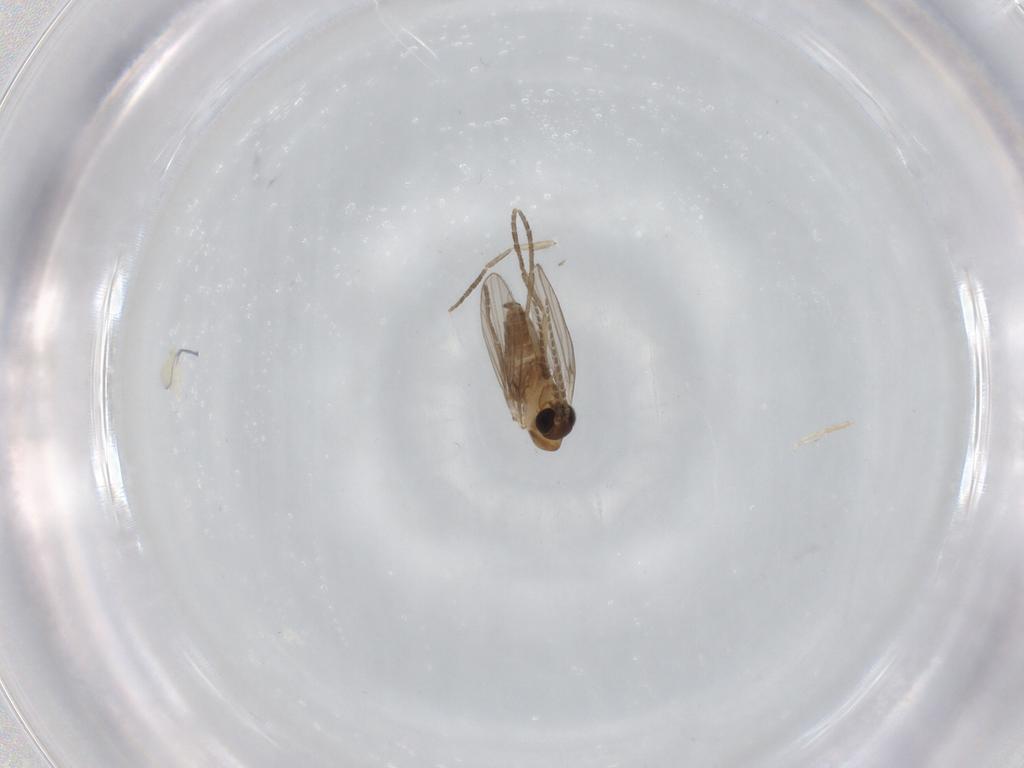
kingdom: Animalia
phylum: Arthropoda
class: Insecta
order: Diptera
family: Psychodidae
